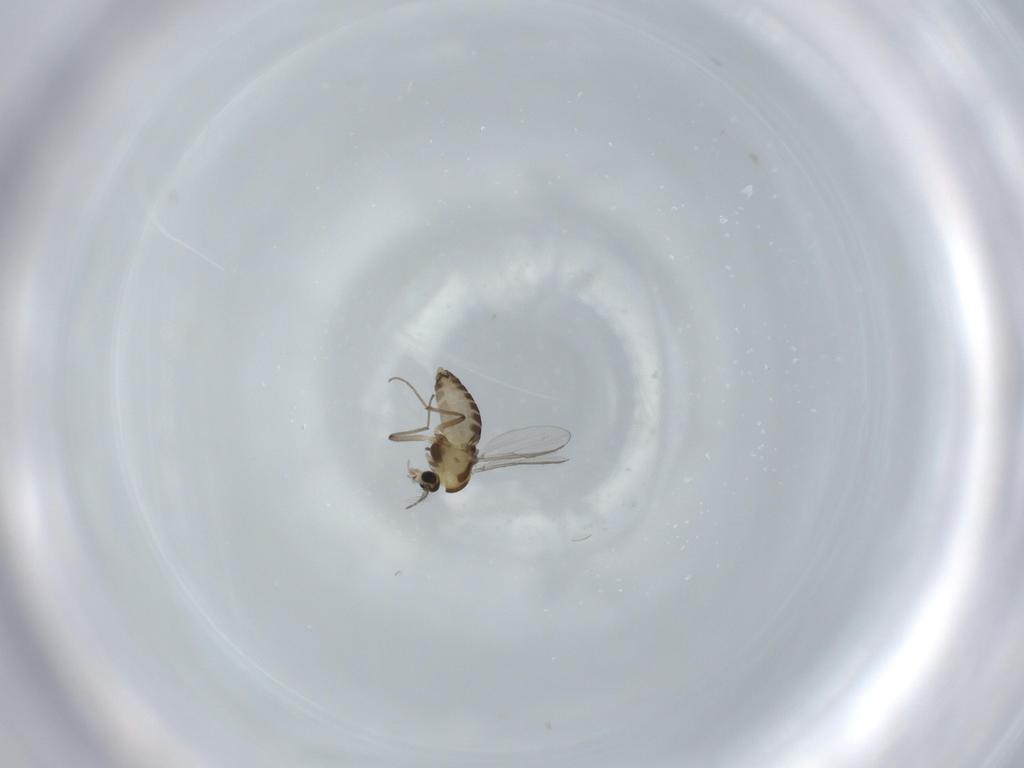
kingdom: Animalia
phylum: Arthropoda
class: Insecta
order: Diptera
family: Chironomidae
